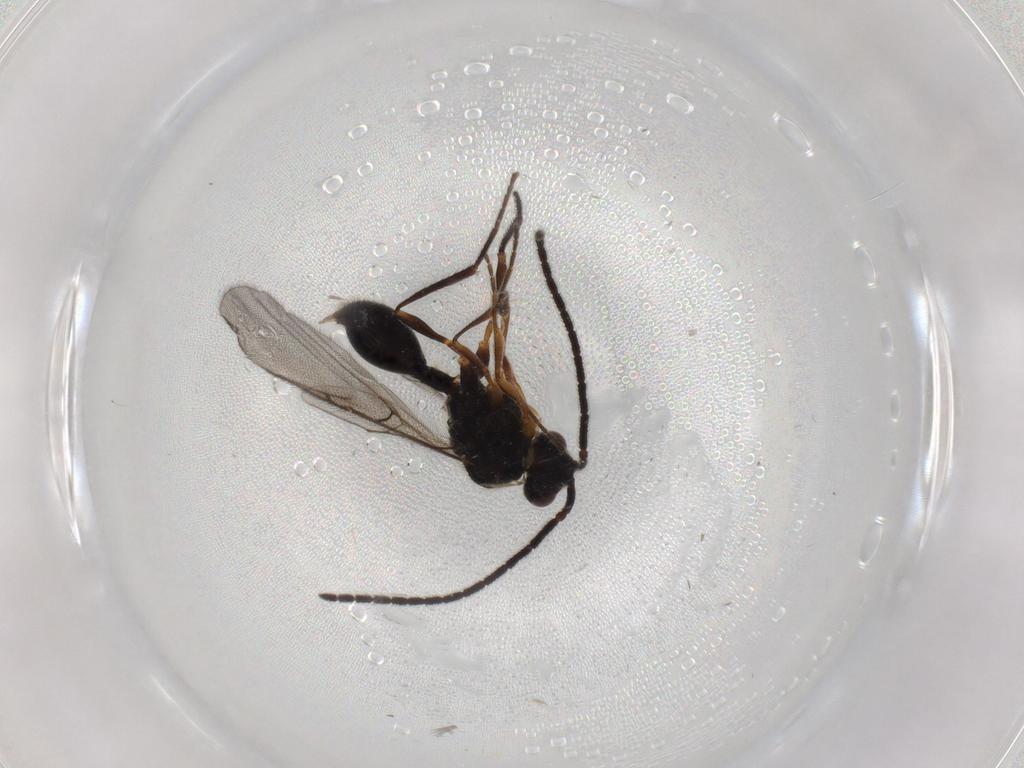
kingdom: Animalia
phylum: Arthropoda
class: Insecta
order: Hymenoptera
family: Diapriidae
